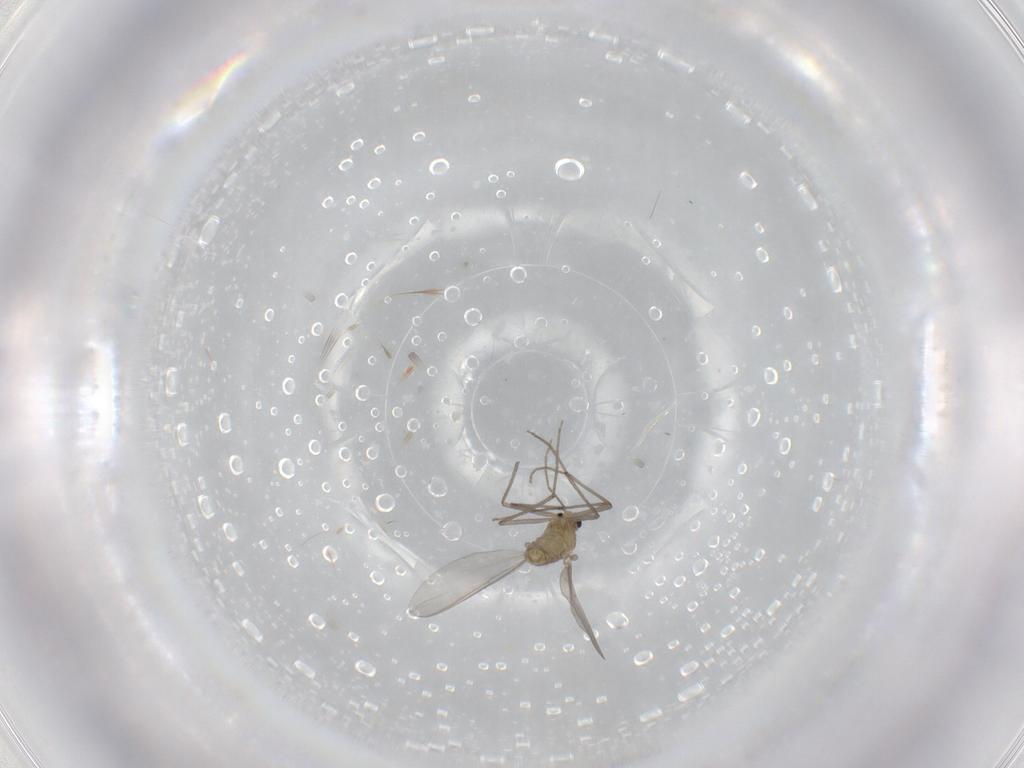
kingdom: Animalia
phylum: Arthropoda
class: Insecta
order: Diptera
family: Chironomidae
